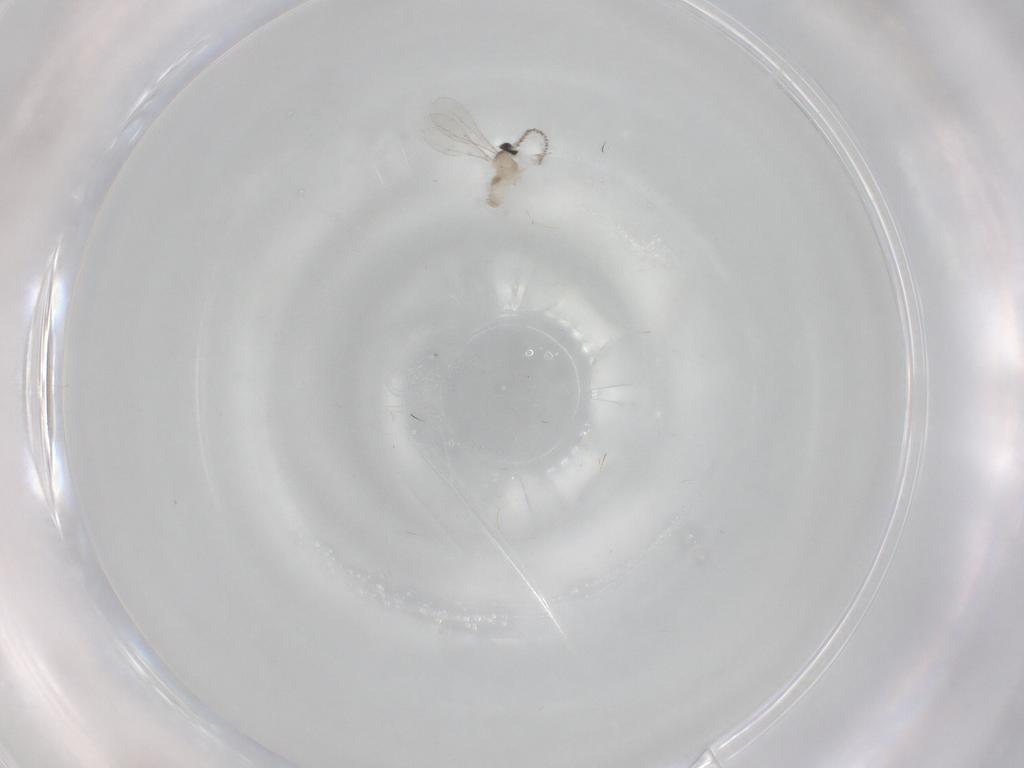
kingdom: Animalia
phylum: Arthropoda
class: Insecta
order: Diptera
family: Cecidomyiidae
